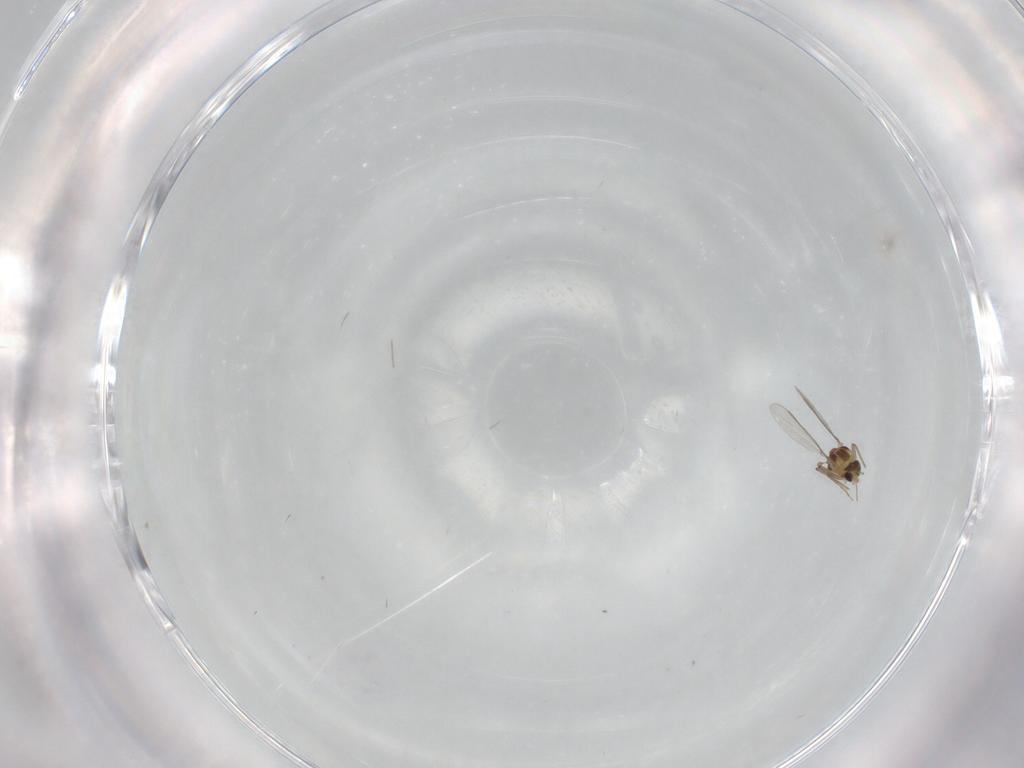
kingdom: Animalia
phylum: Arthropoda
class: Insecta
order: Diptera
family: Chironomidae
